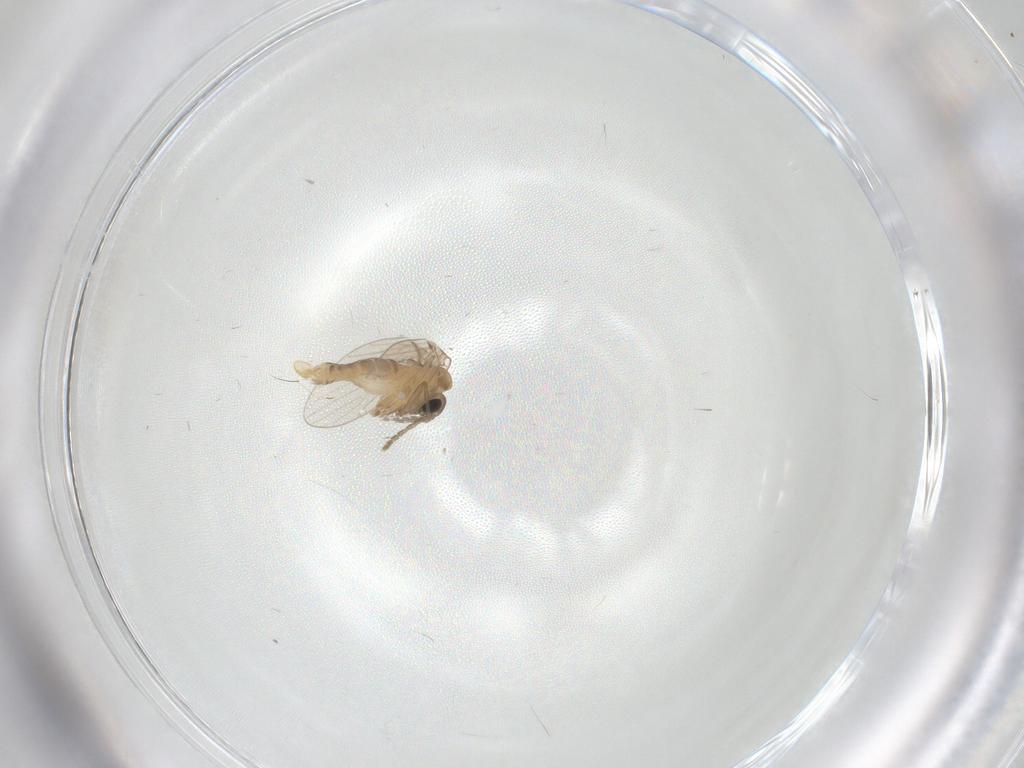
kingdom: Animalia
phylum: Arthropoda
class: Insecta
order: Diptera
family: Psychodidae
